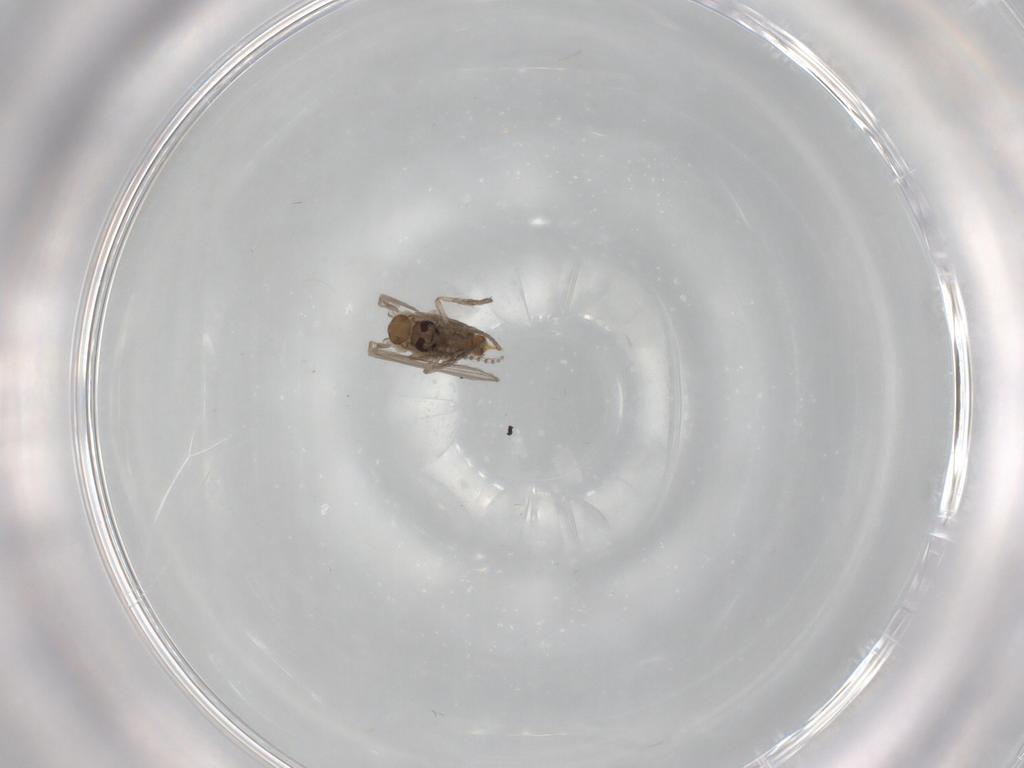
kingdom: Animalia
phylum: Arthropoda
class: Insecta
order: Diptera
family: Psychodidae
